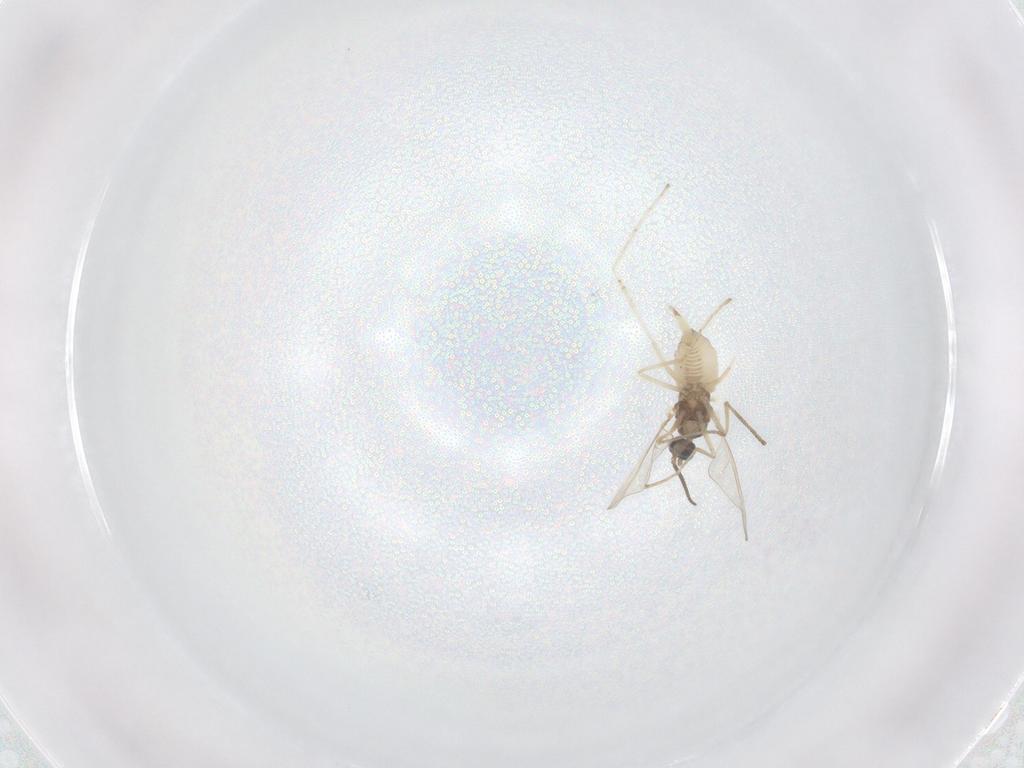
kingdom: Animalia
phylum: Arthropoda
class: Insecta
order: Diptera
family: Cecidomyiidae
